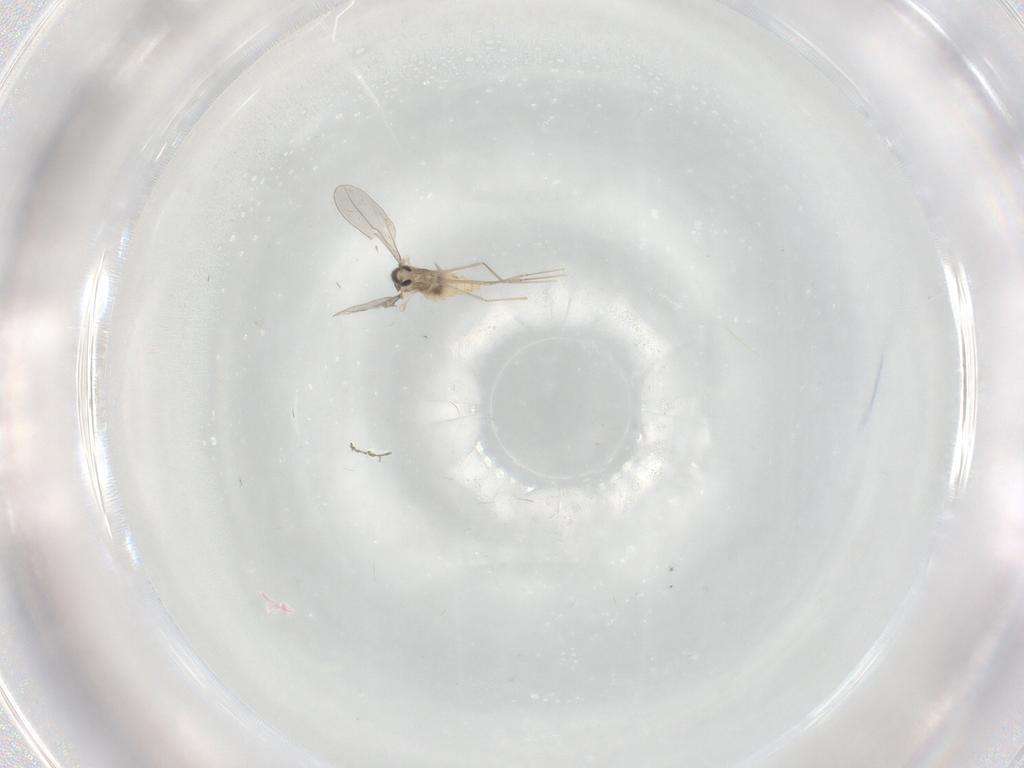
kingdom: Animalia
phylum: Arthropoda
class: Insecta
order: Diptera
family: Cecidomyiidae
